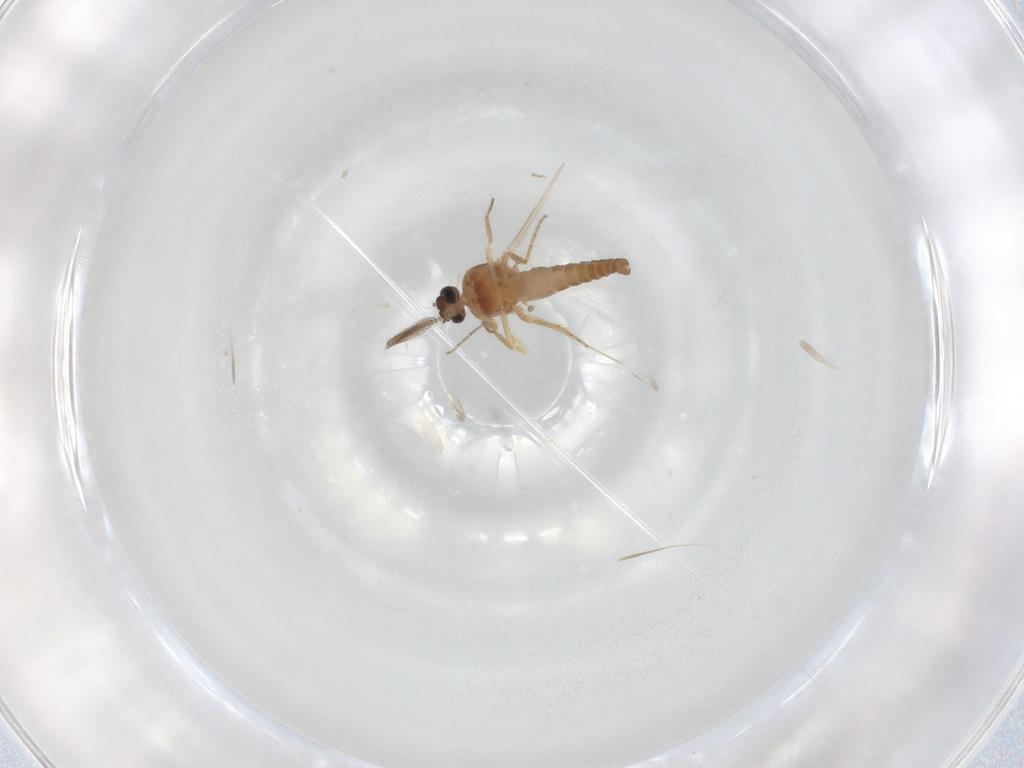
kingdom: Animalia
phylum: Arthropoda
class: Insecta
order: Diptera
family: Ceratopogonidae
